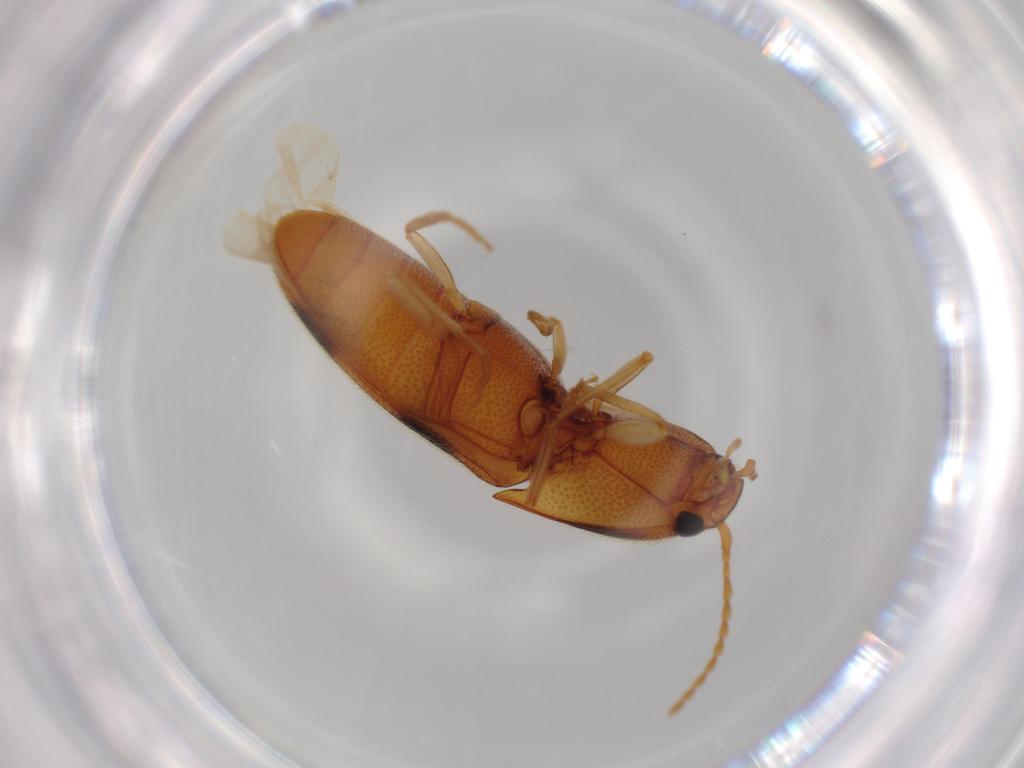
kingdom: Animalia
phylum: Arthropoda
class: Insecta
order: Coleoptera
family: Elateridae
